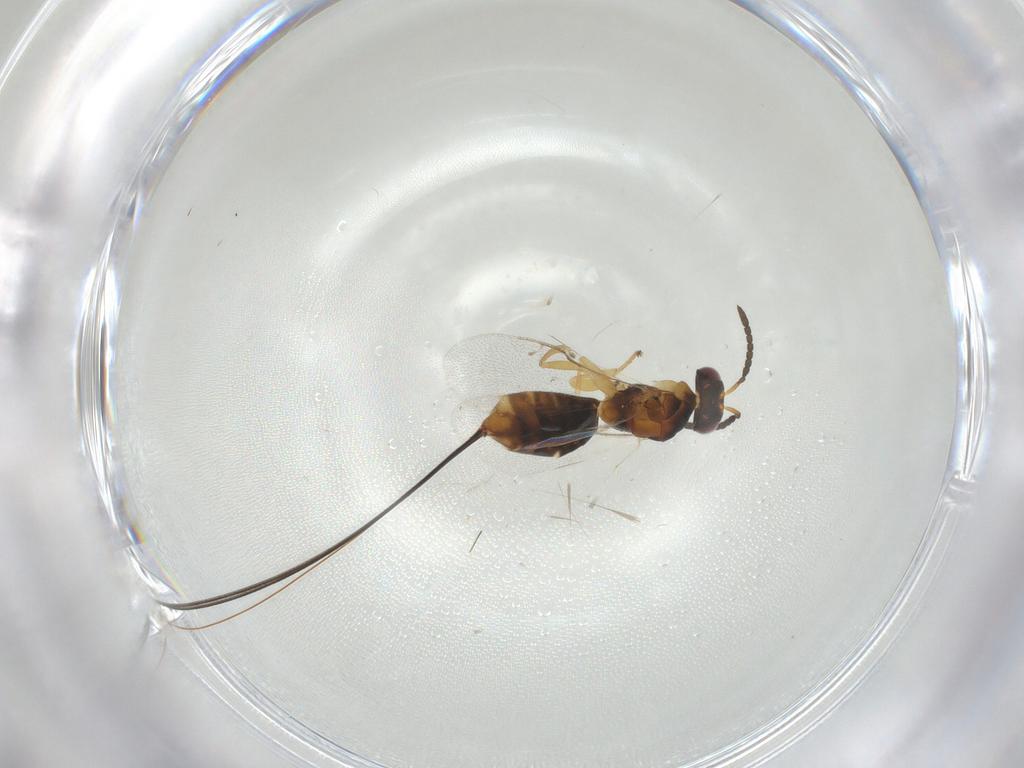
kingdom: Animalia
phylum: Arthropoda
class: Insecta
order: Hymenoptera
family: Pteromalidae
